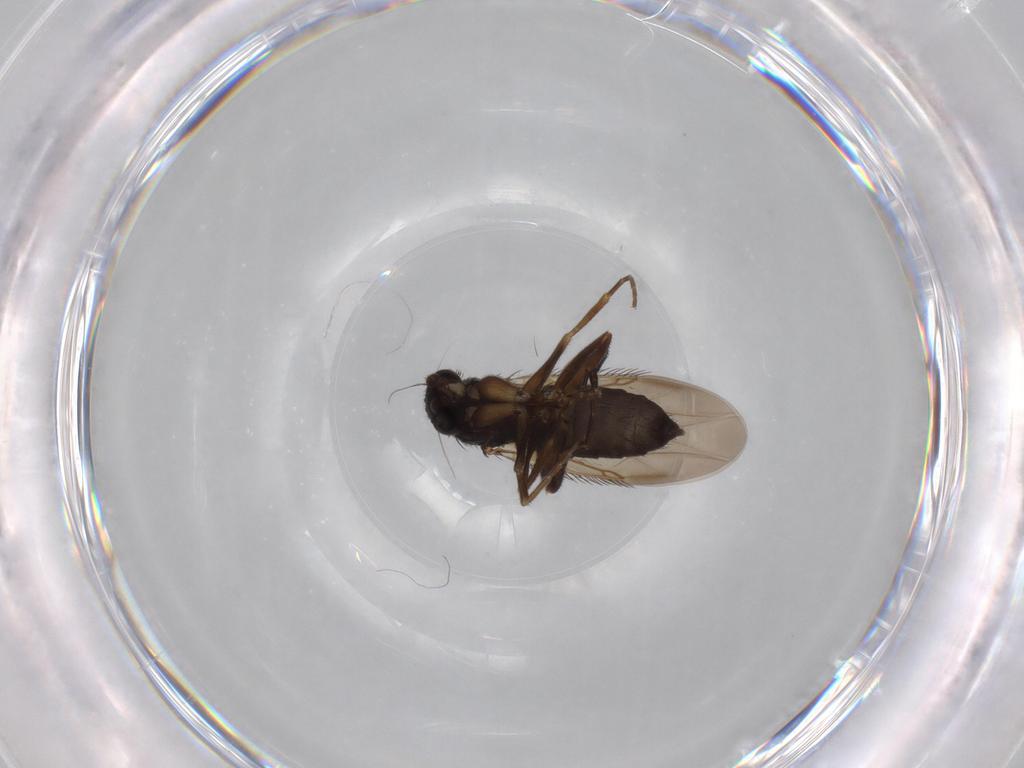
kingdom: Animalia
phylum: Arthropoda
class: Insecta
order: Diptera
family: Phoridae
